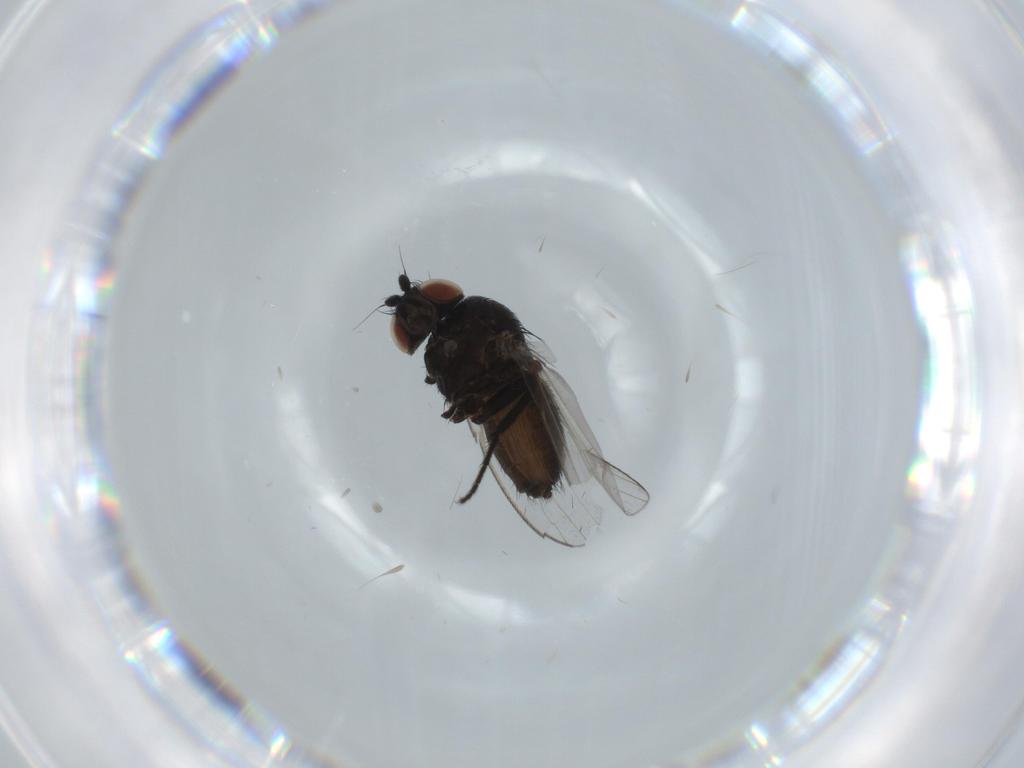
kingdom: Animalia
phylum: Arthropoda
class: Insecta
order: Diptera
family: Milichiidae
